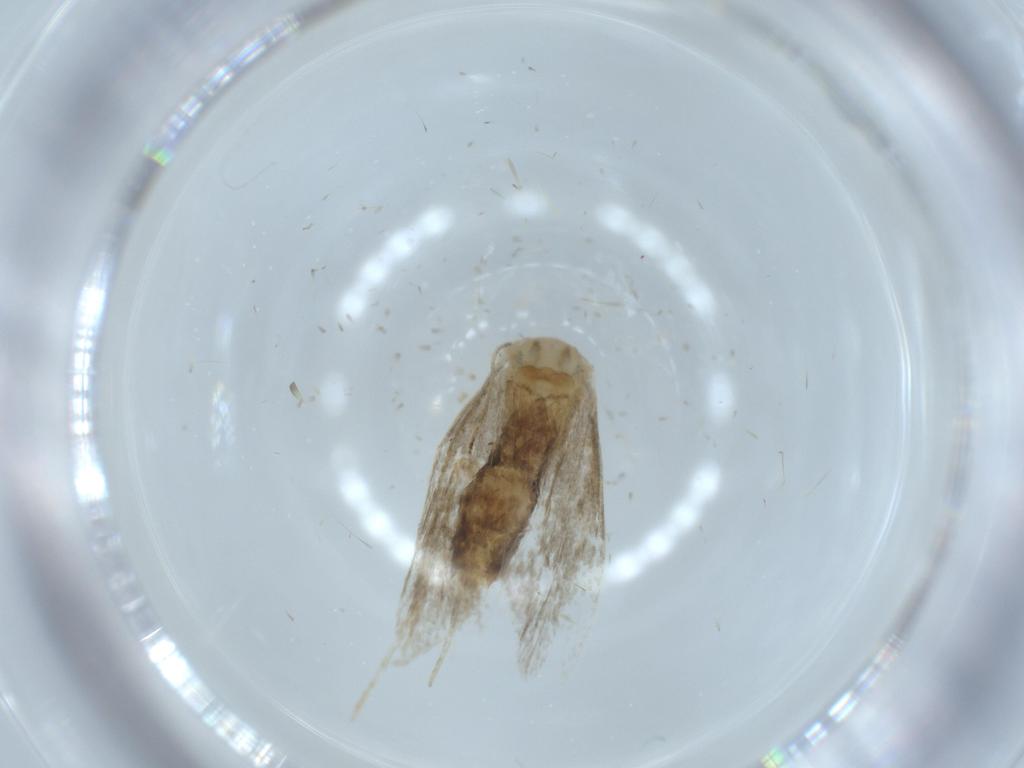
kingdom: Animalia
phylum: Arthropoda
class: Insecta
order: Lepidoptera
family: Tineidae
